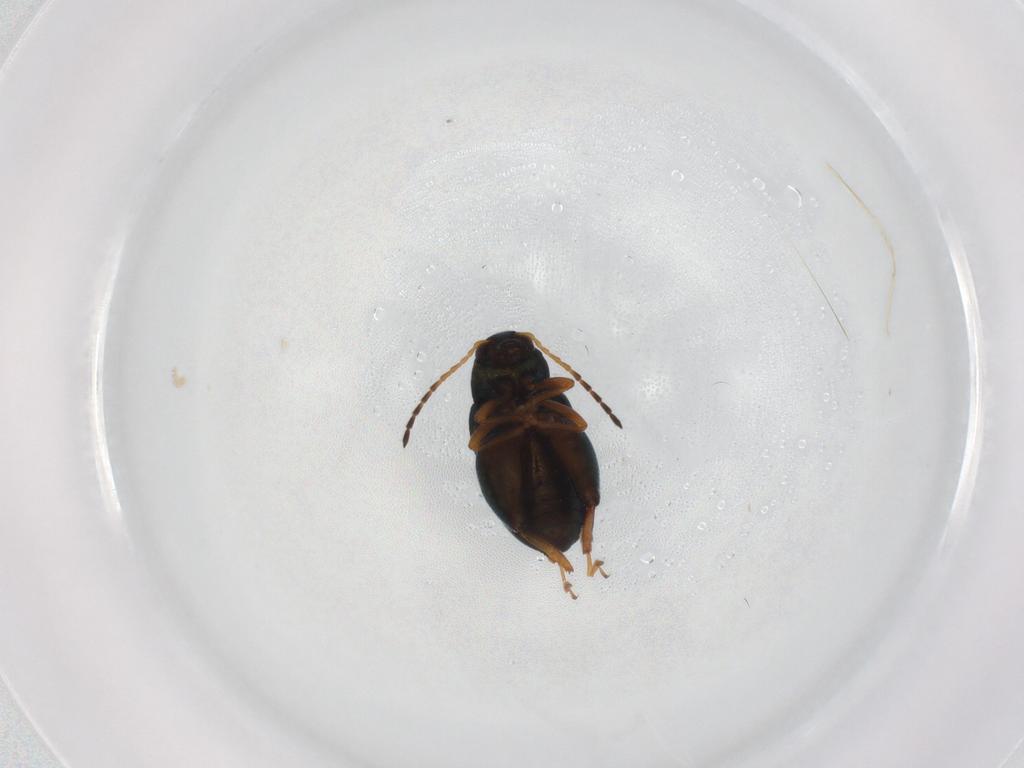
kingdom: Animalia
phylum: Arthropoda
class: Insecta
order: Coleoptera
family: Chrysomelidae
